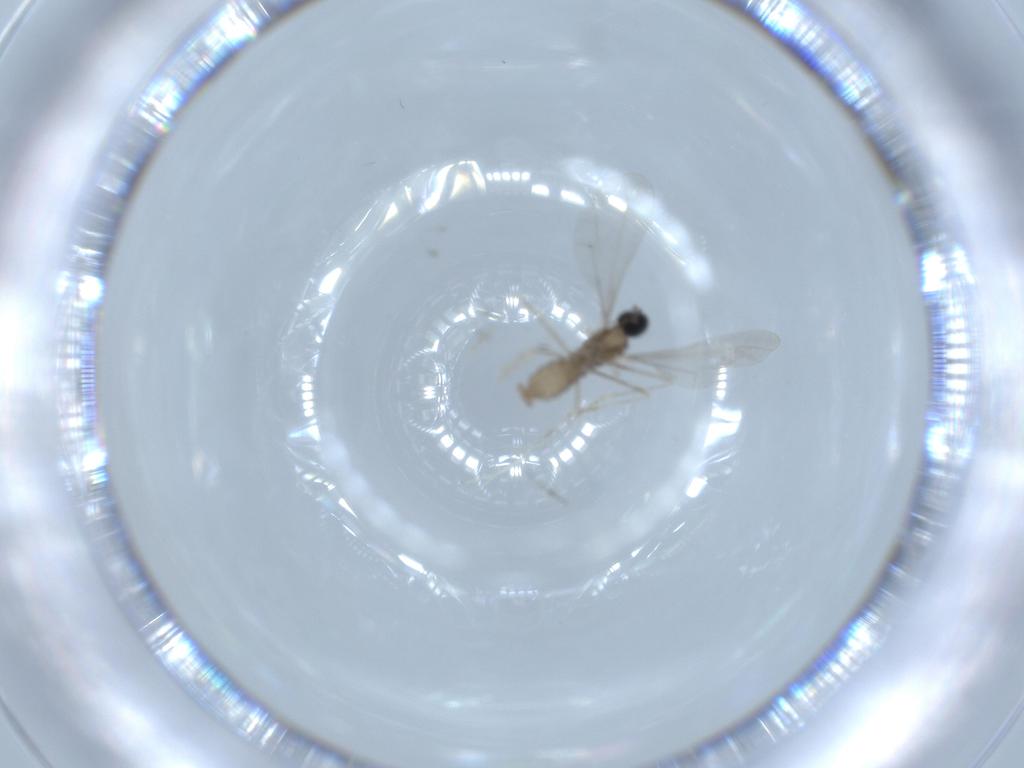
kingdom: Animalia
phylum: Arthropoda
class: Insecta
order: Diptera
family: Cecidomyiidae
